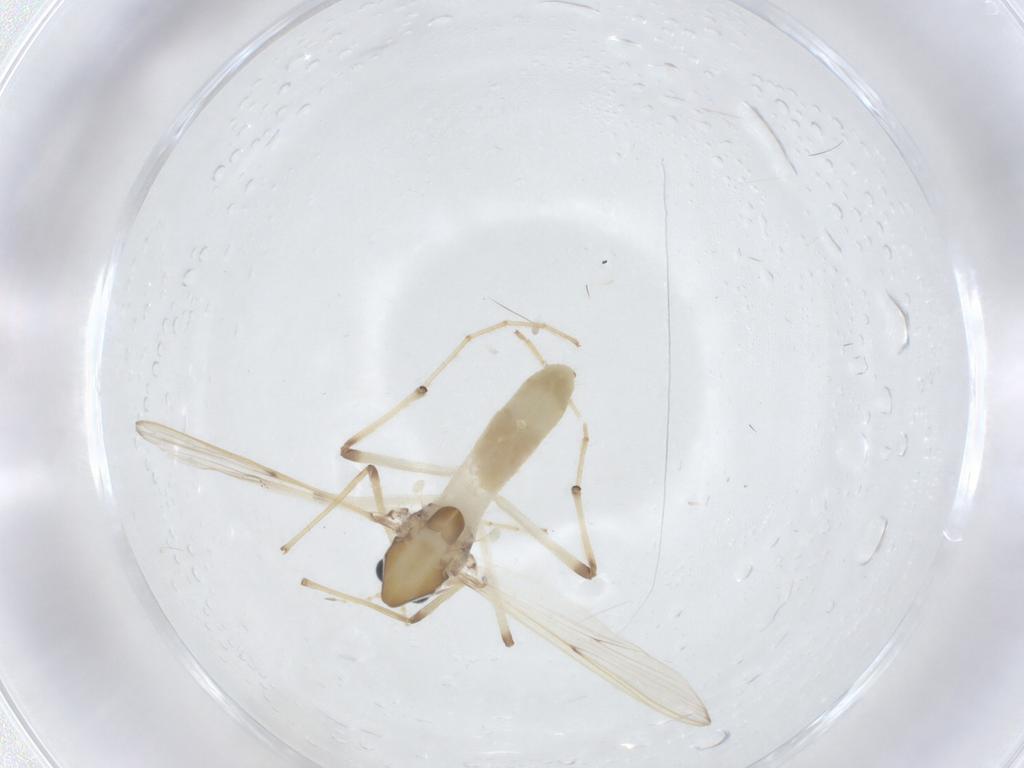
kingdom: Animalia
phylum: Arthropoda
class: Insecta
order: Diptera
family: Chironomidae
